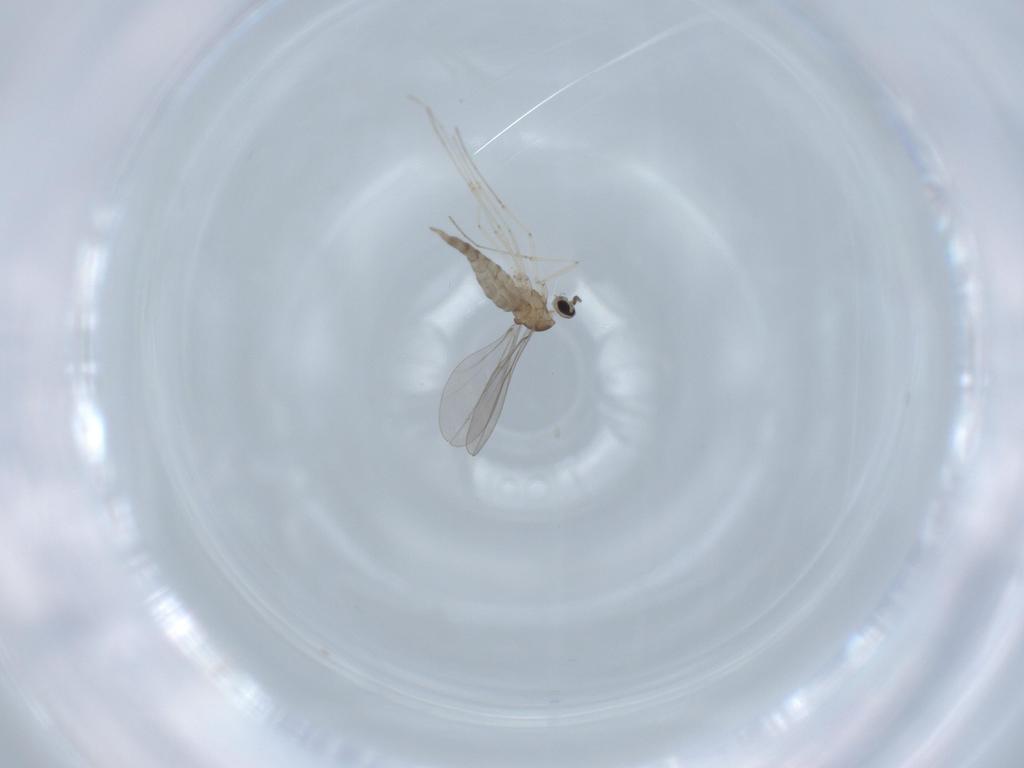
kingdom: Animalia
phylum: Arthropoda
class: Insecta
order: Diptera
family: Cecidomyiidae
